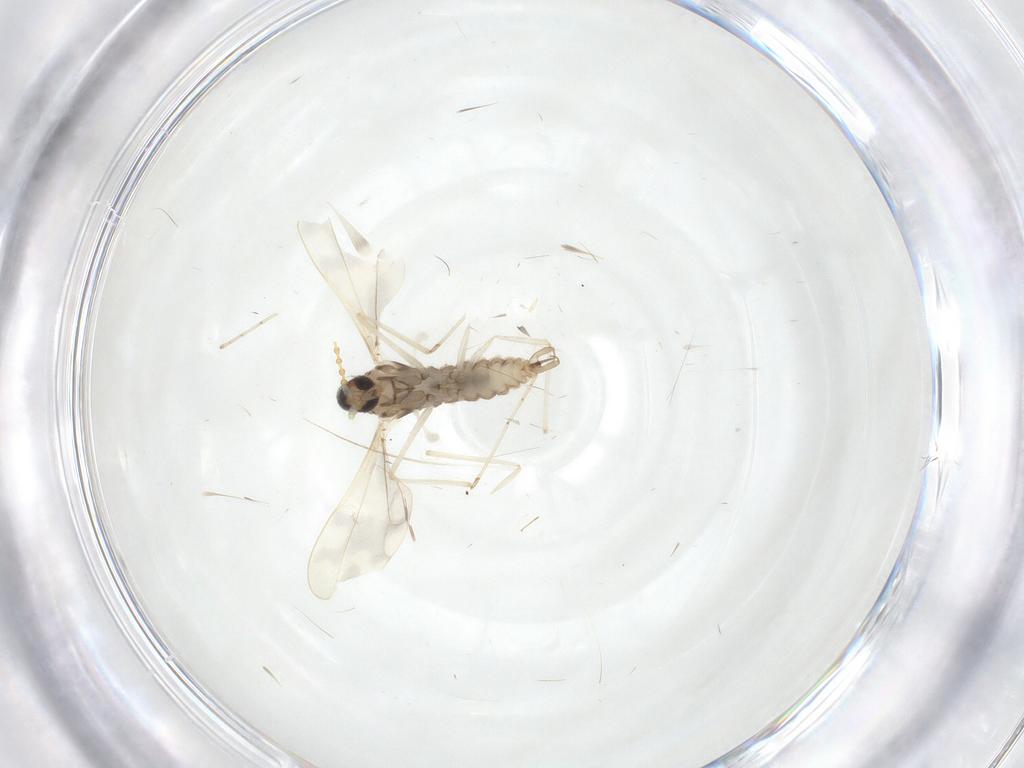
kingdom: Animalia
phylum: Arthropoda
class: Insecta
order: Diptera
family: Cecidomyiidae
